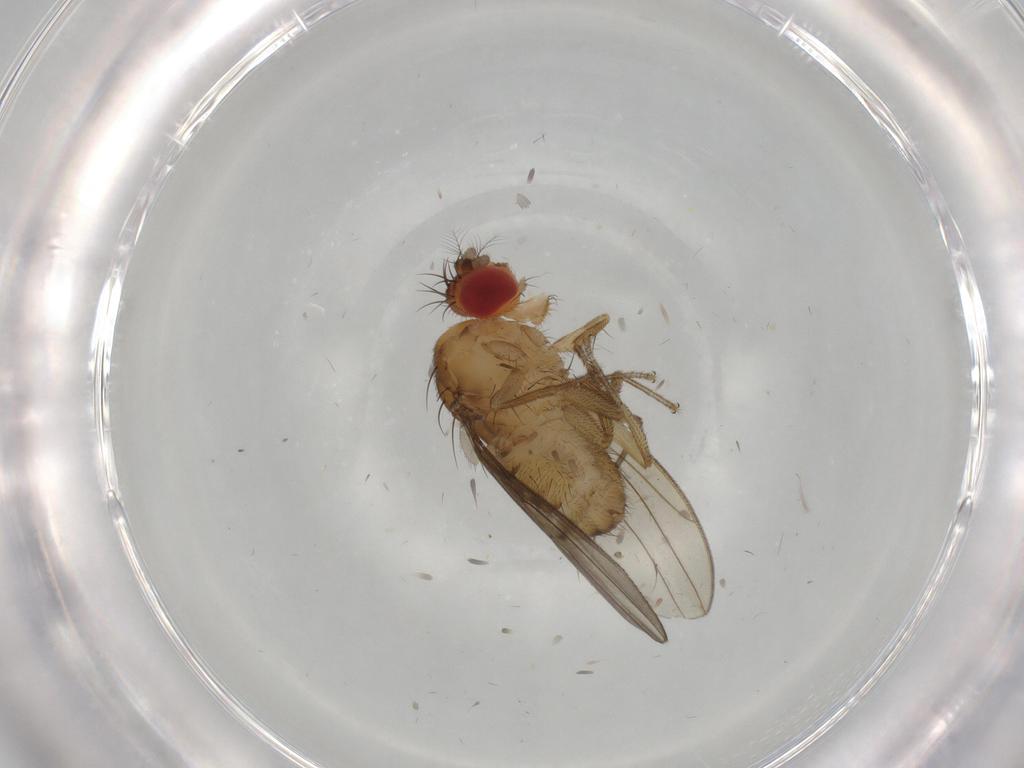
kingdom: Animalia
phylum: Arthropoda
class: Insecta
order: Diptera
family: Drosophilidae
